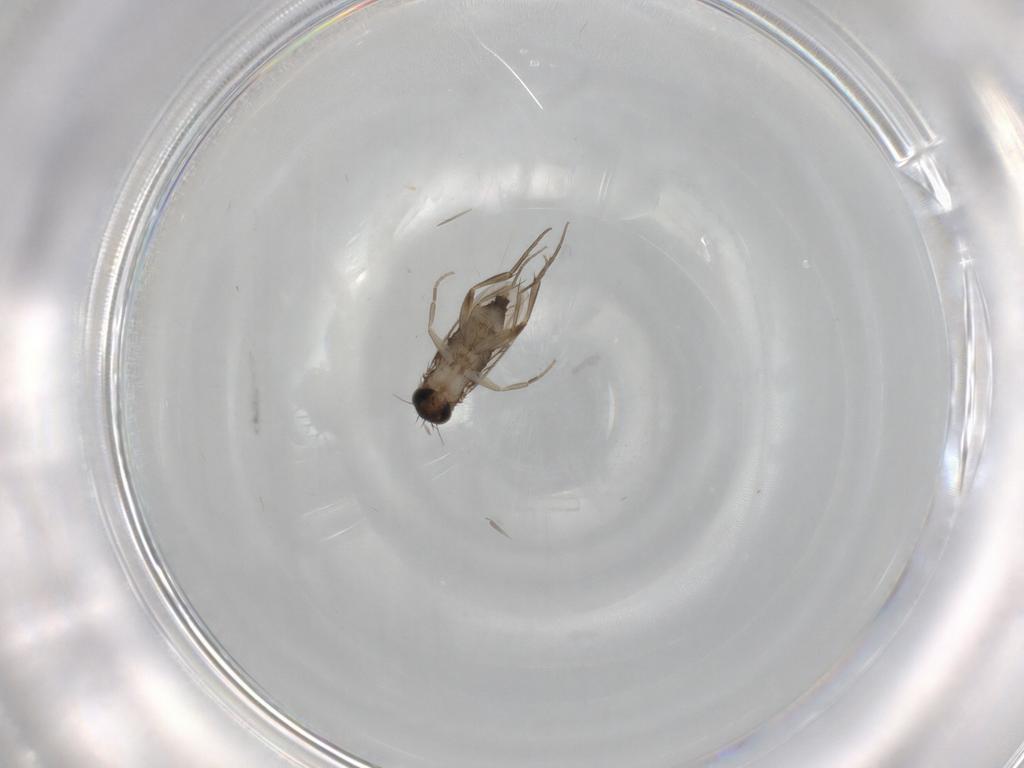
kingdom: Animalia
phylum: Arthropoda
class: Insecta
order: Diptera
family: Phoridae
